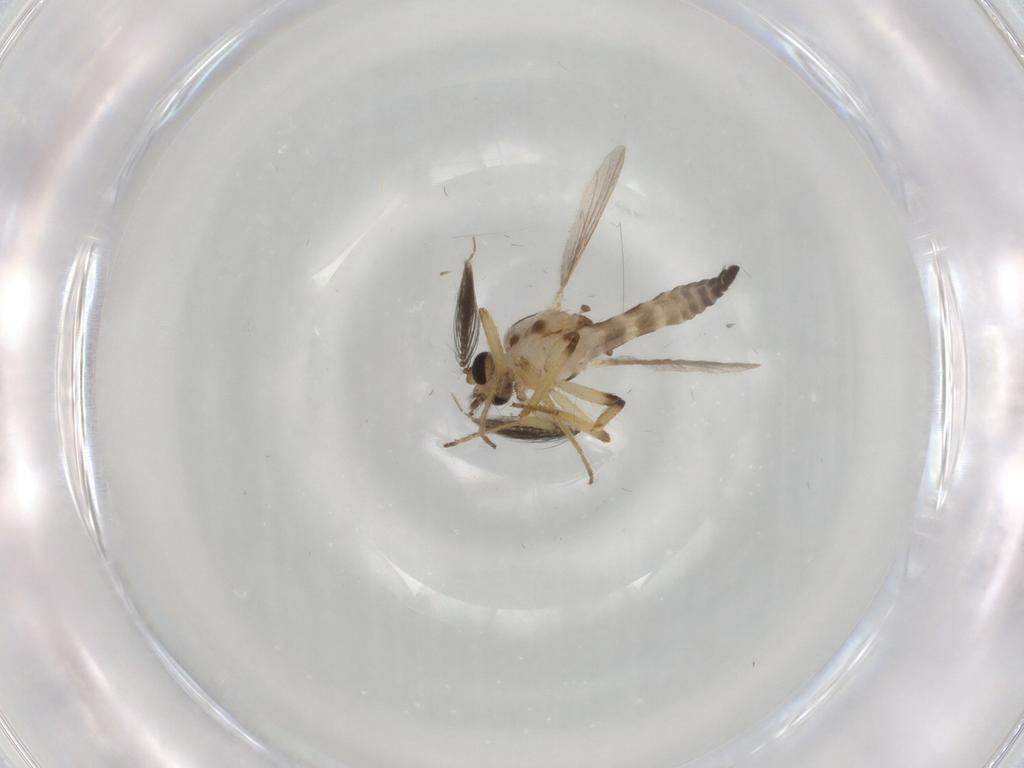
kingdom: Animalia
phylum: Arthropoda
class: Insecta
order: Diptera
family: Ceratopogonidae
